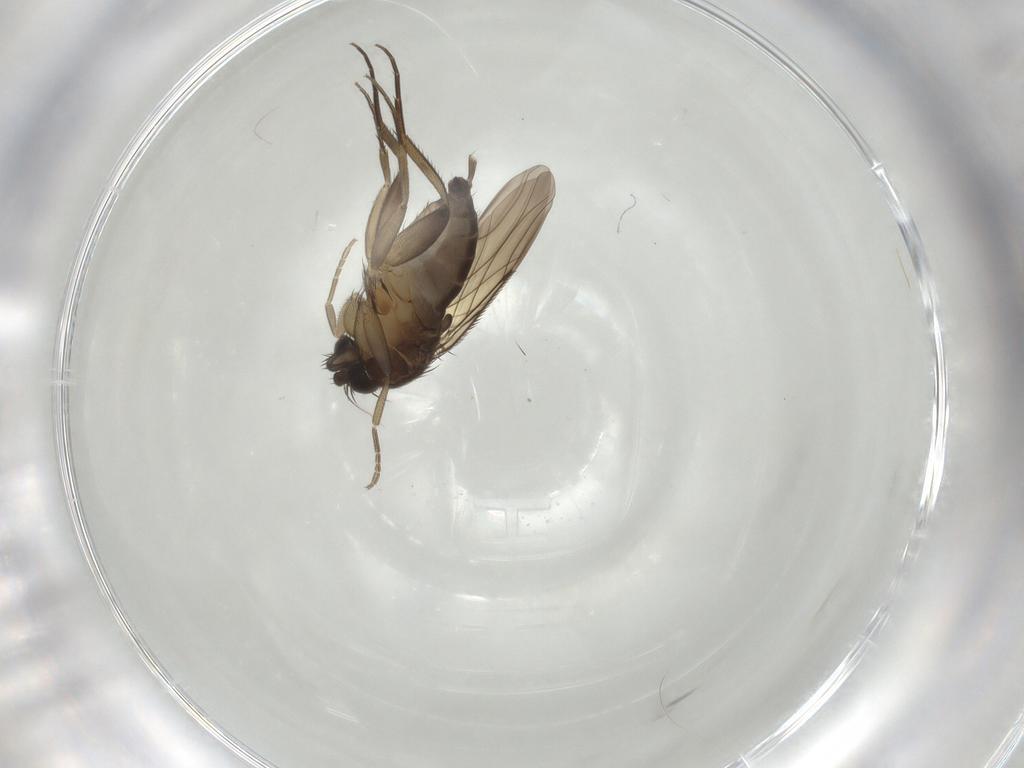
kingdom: Animalia
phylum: Arthropoda
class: Insecta
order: Diptera
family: Phoridae
